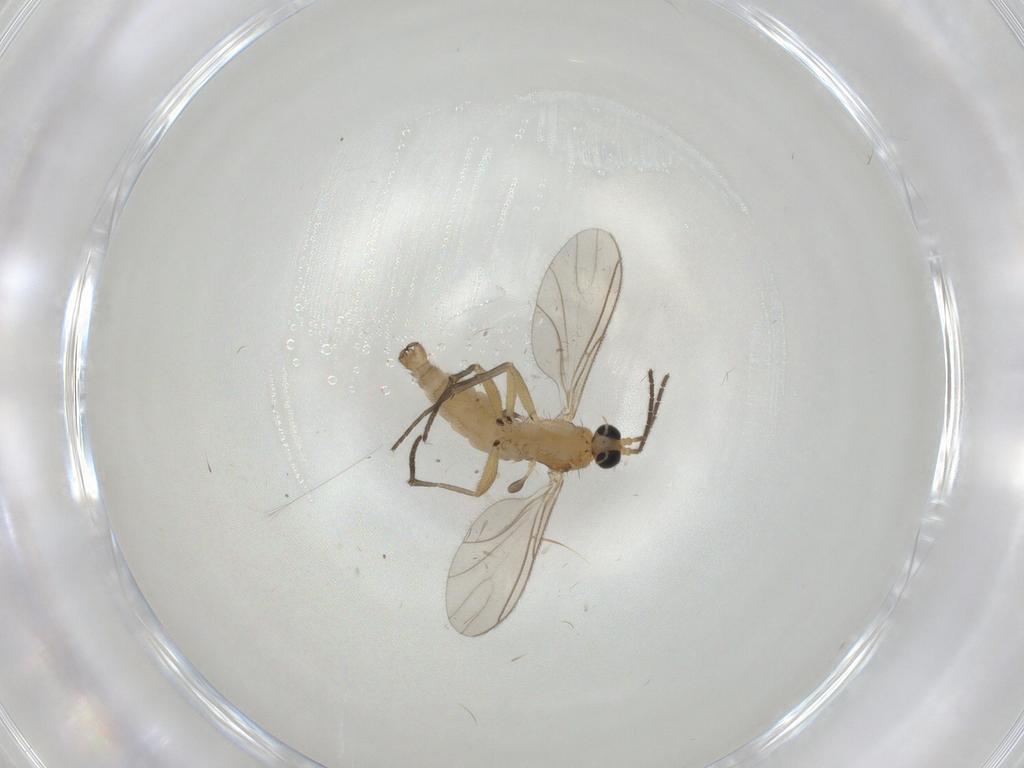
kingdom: Animalia
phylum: Arthropoda
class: Insecta
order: Diptera
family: Sciaridae
